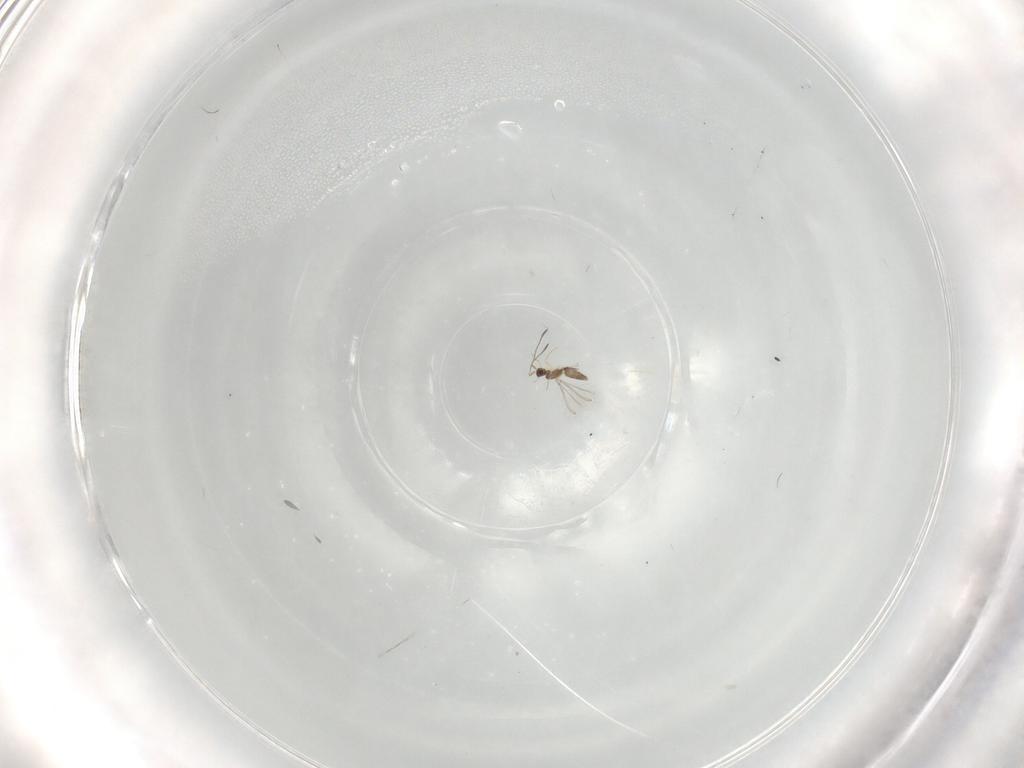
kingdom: Animalia
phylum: Arthropoda
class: Insecta
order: Hymenoptera
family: Mymaridae
